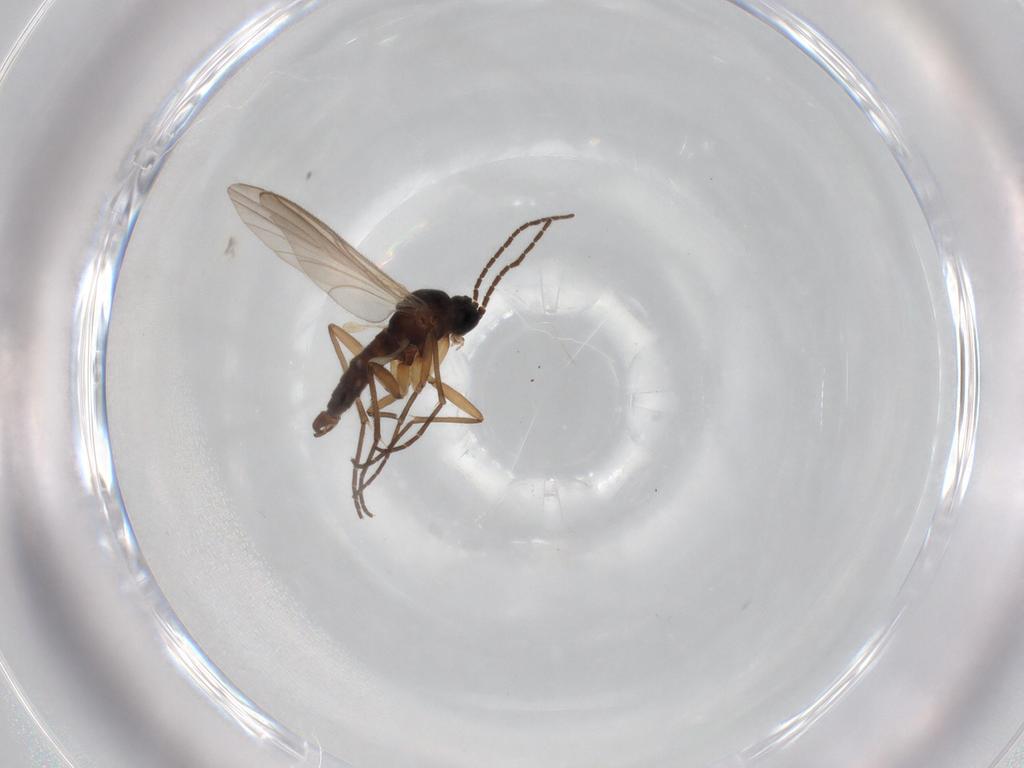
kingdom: Animalia
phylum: Arthropoda
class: Insecta
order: Diptera
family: Sciaridae
